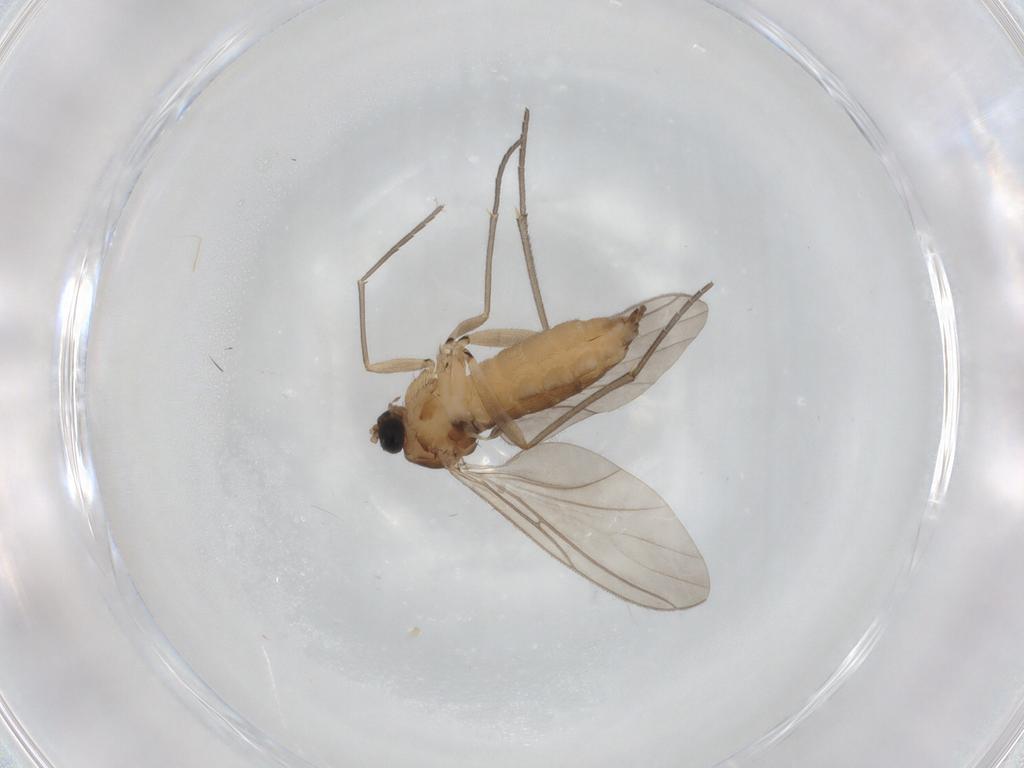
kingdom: Animalia
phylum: Arthropoda
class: Insecta
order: Diptera
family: Sciaridae
